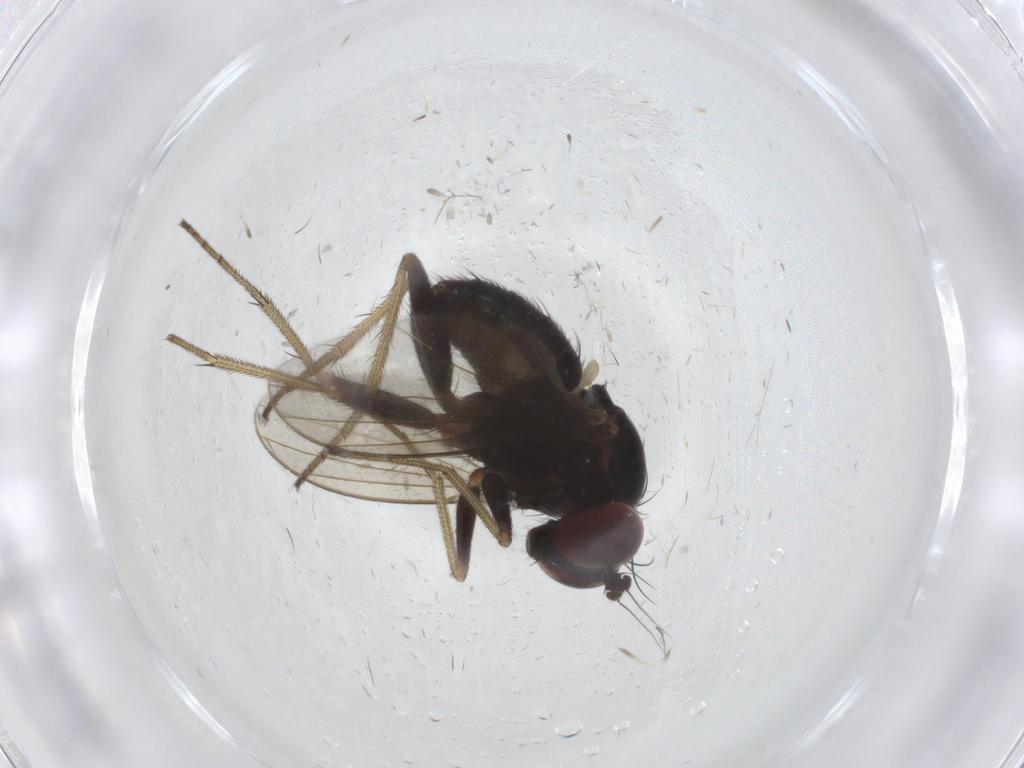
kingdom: Animalia
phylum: Arthropoda
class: Insecta
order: Diptera
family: Dolichopodidae
